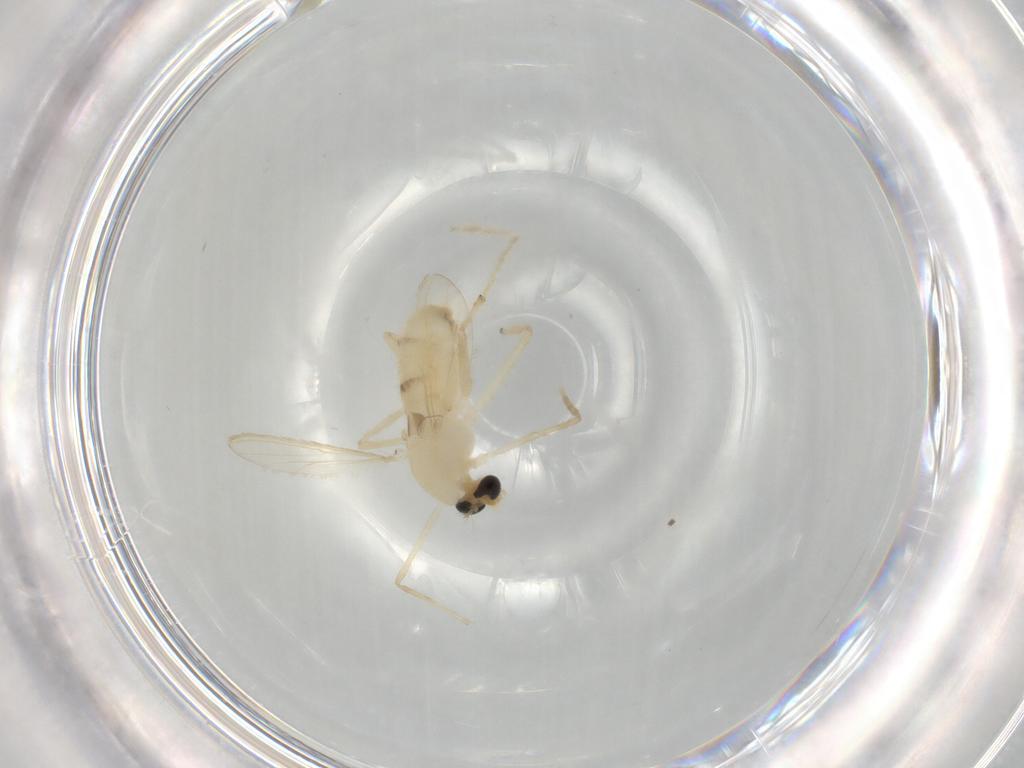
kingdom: Animalia
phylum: Arthropoda
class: Insecta
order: Diptera
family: Chironomidae
